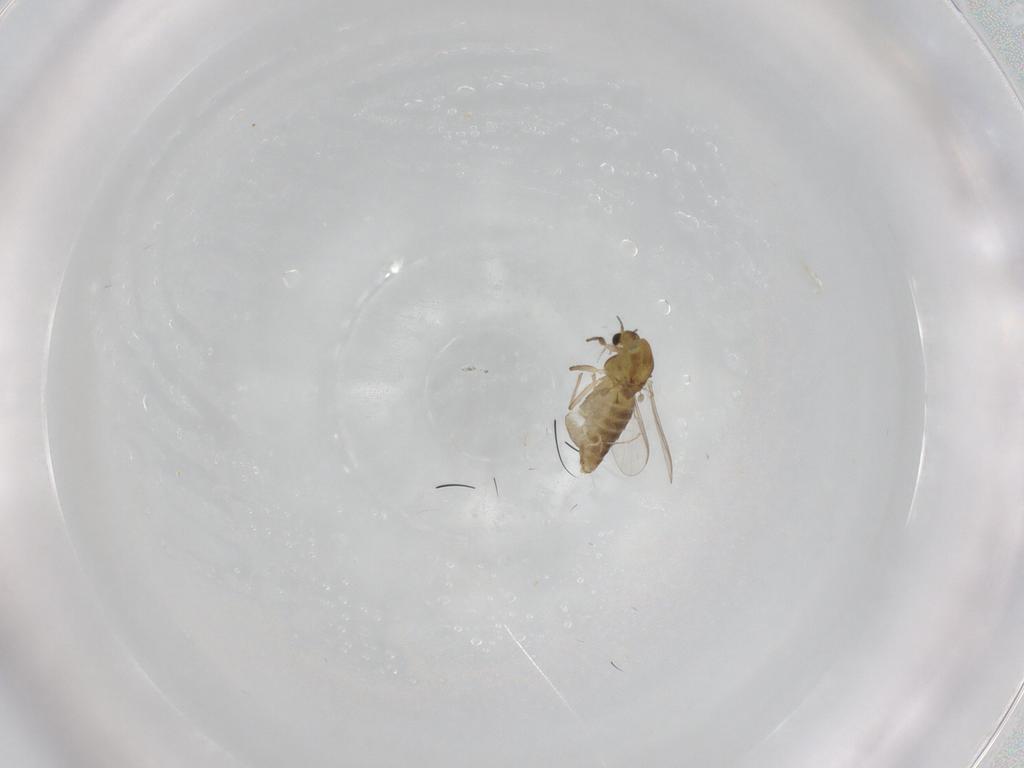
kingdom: Animalia
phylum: Arthropoda
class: Insecta
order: Diptera
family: Chironomidae
